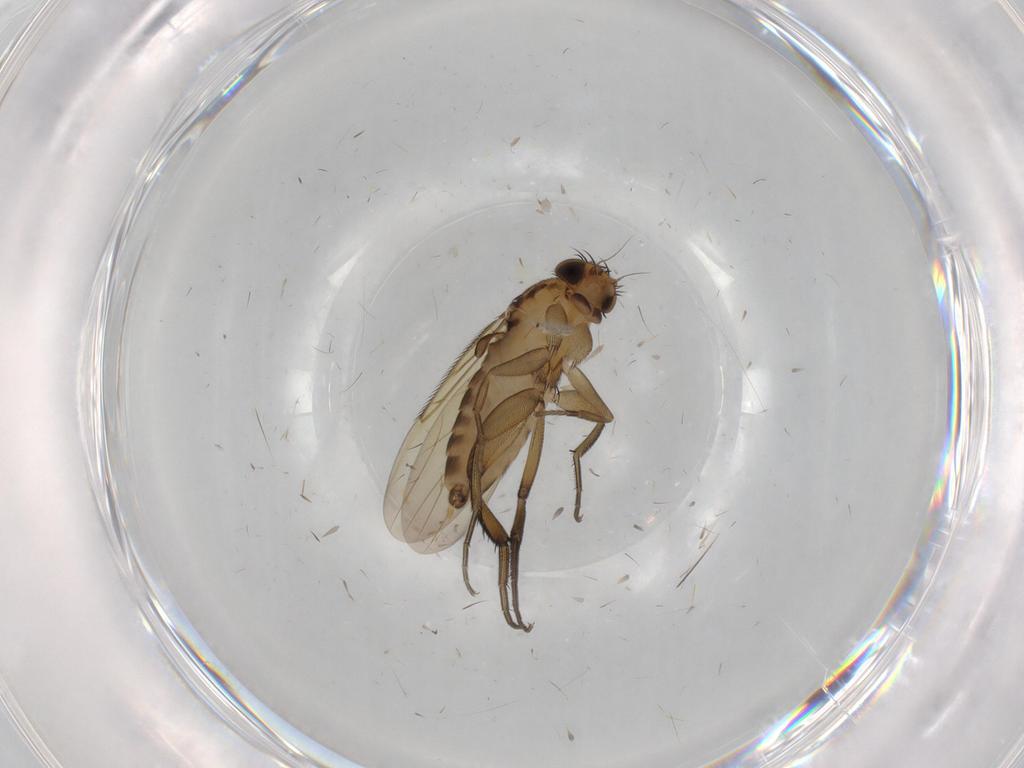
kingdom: Animalia
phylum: Arthropoda
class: Insecta
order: Diptera
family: Phoridae
